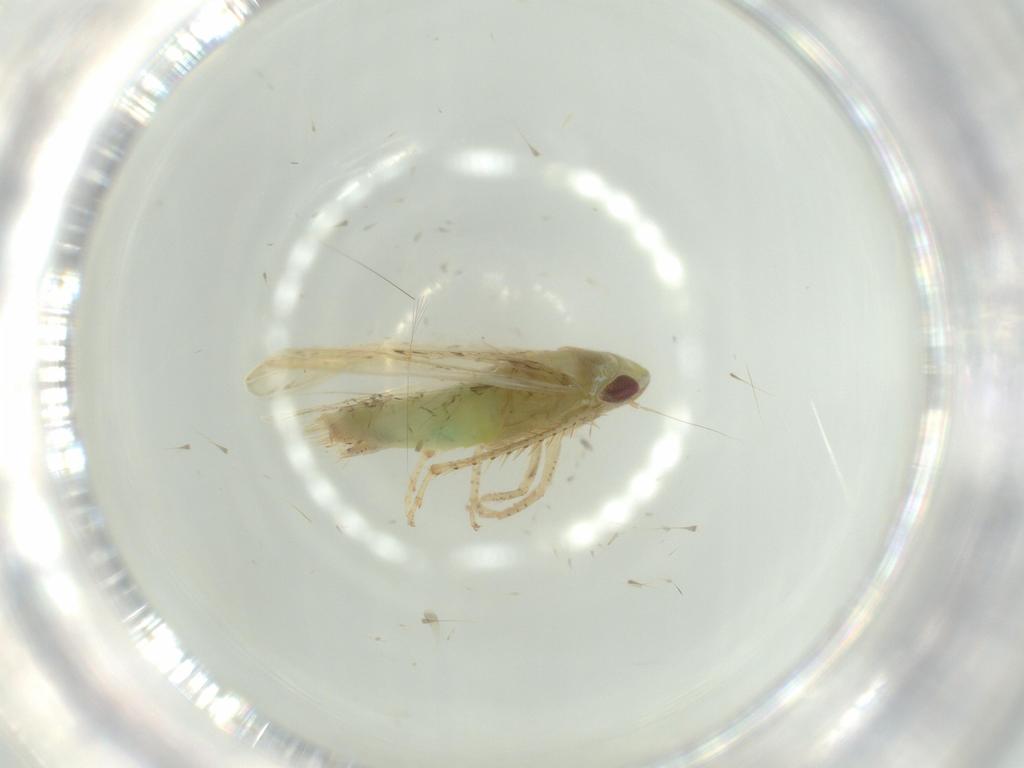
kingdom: Animalia
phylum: Arthropoda
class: Insecta
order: Hemiptera
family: Cicadellidae
